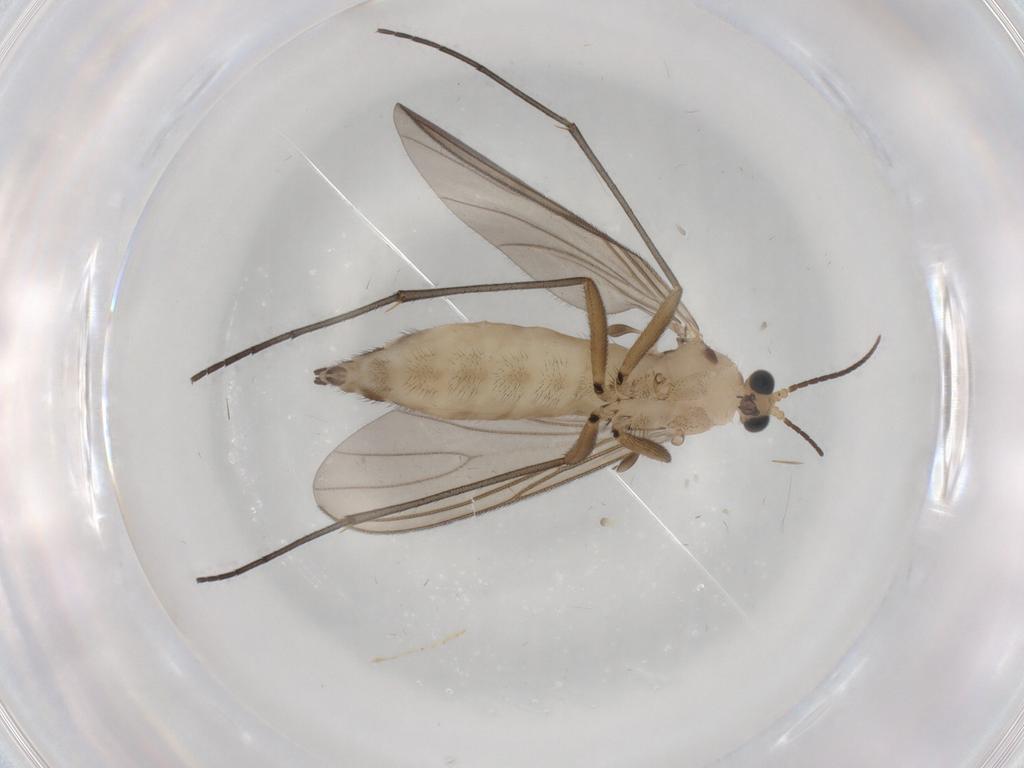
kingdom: Animalia
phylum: Arthropoda
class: Insecta
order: Diptera
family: Sciaridae
